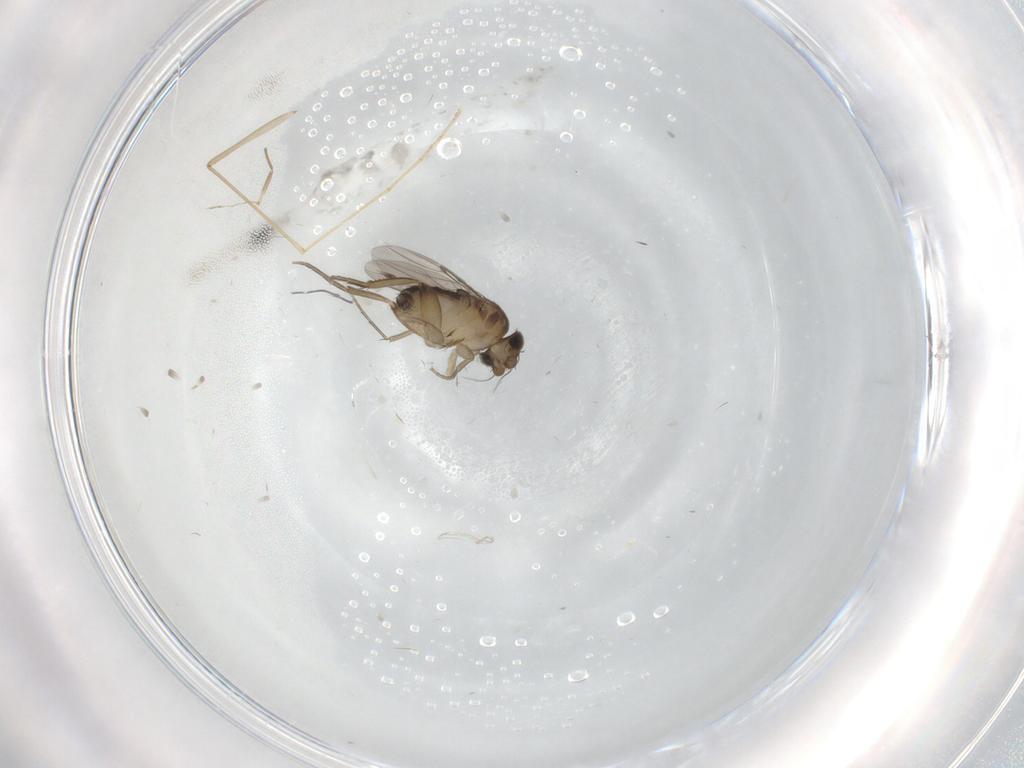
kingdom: Animalia
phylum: Arthropoda
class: Insecta
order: Diptera
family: Phoridae
